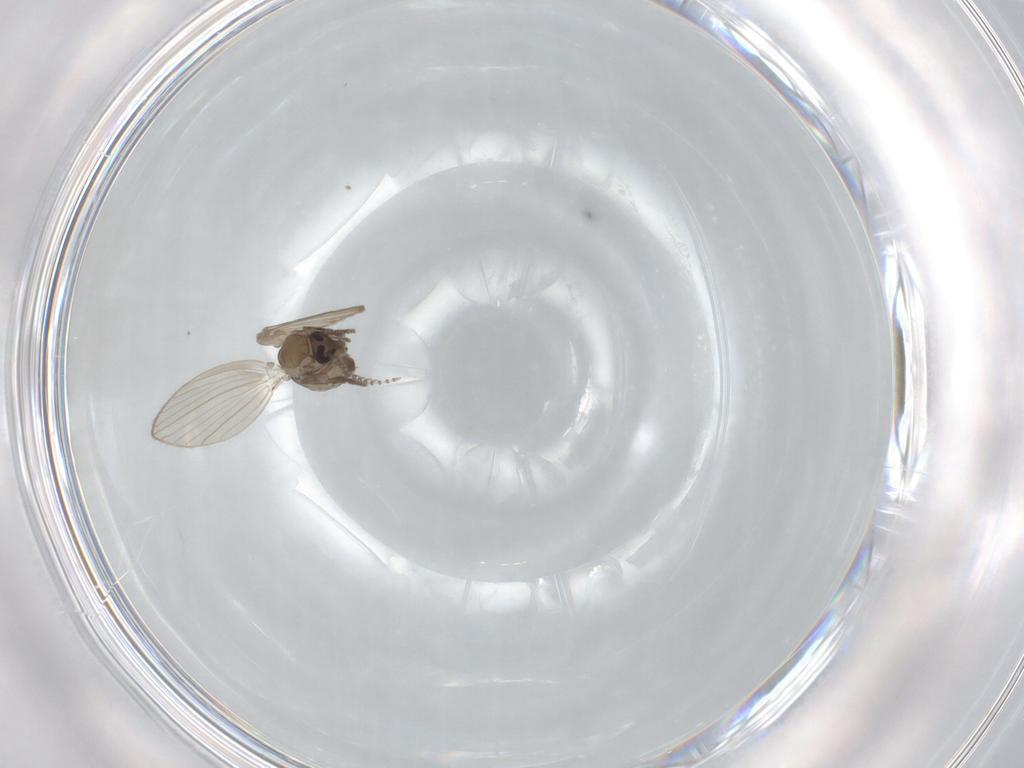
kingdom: Animalia
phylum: Arthropoda
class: Insecta
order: Diptera
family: Psychodidae
